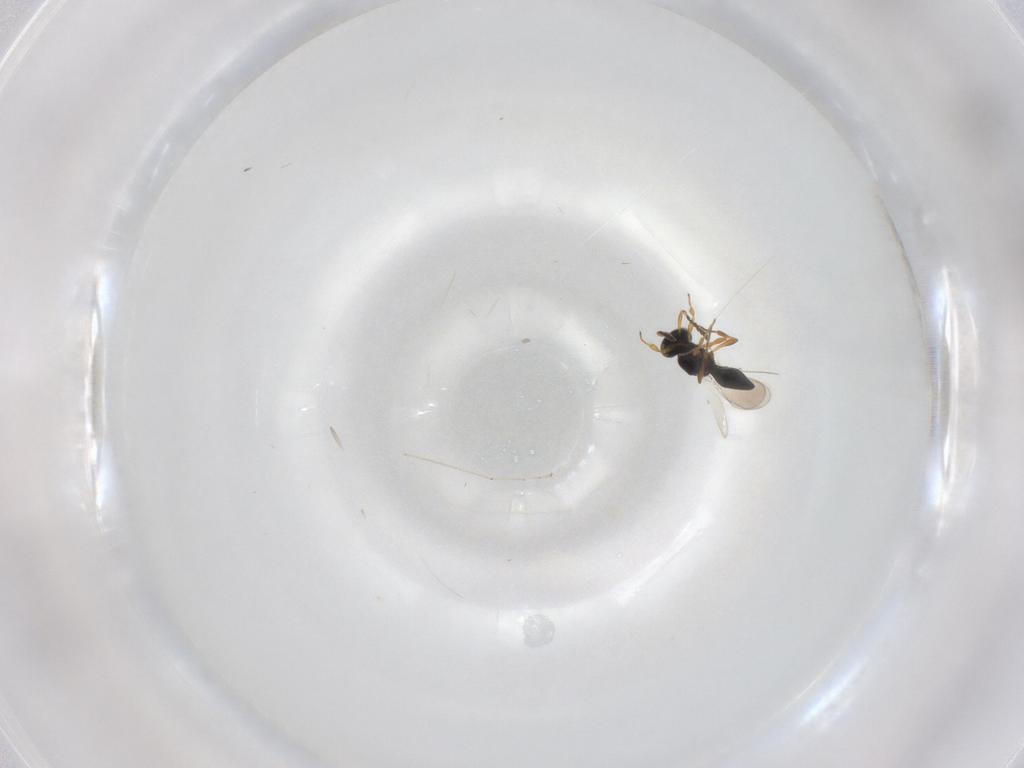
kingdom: Animalia
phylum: Arthropoda
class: Insecta
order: Hymenoptera
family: Platygastridae
